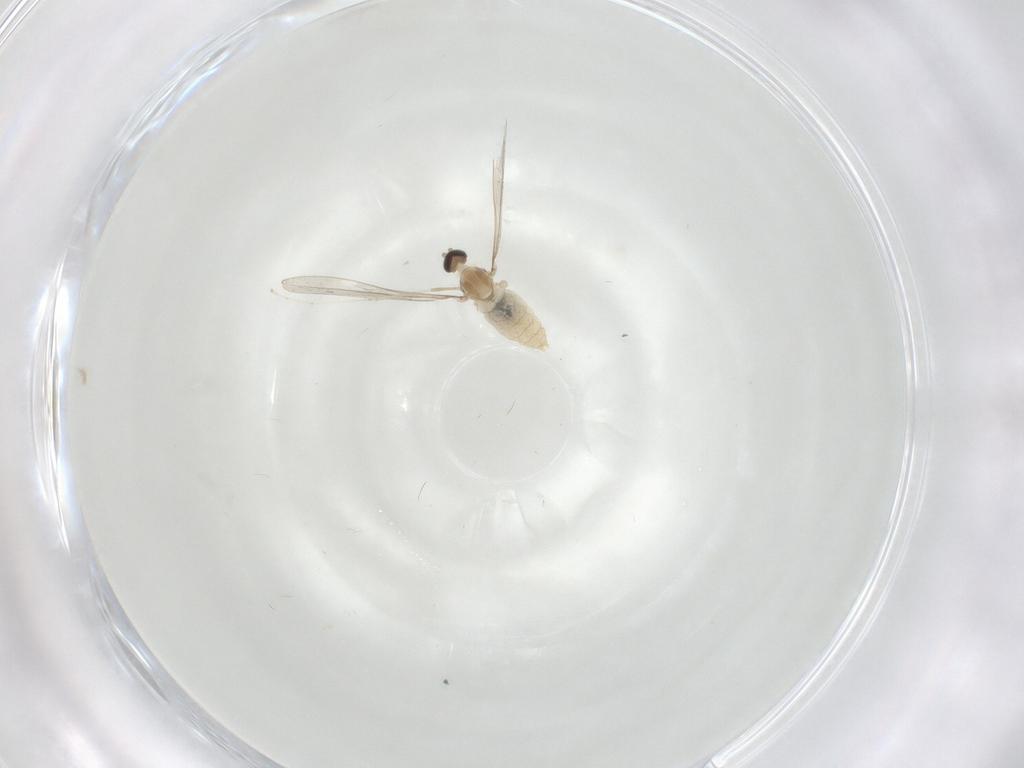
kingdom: Animalia
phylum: Arthropoda
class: Insecta
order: Diptera
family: Cecidomyiidae
